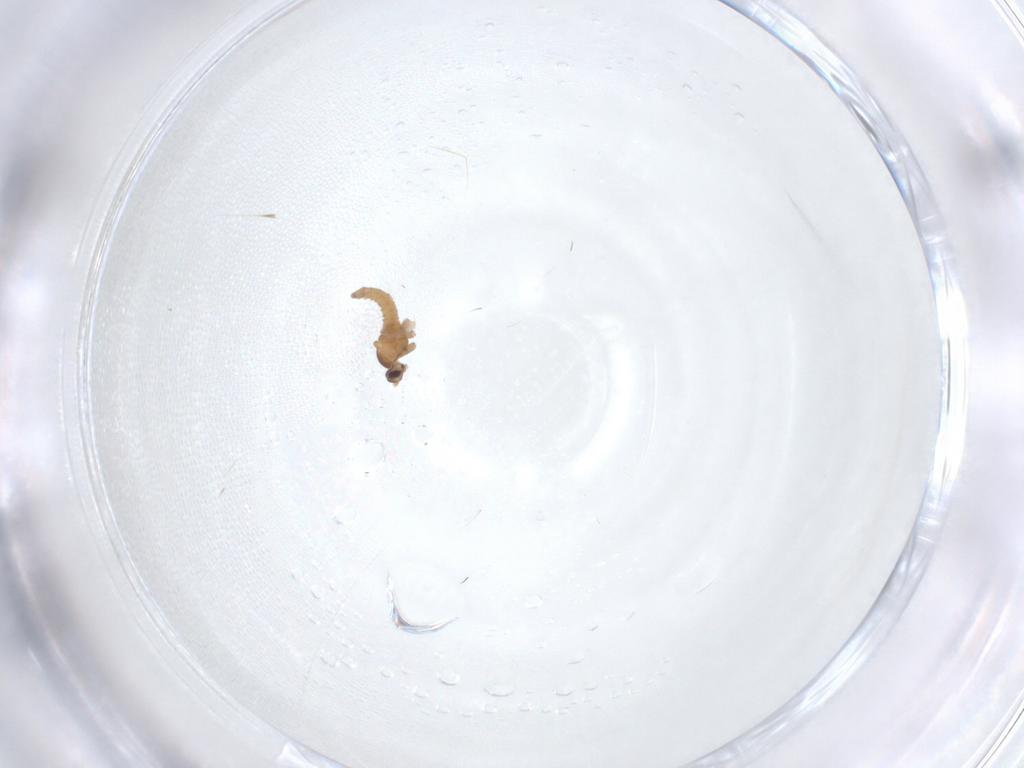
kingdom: Animalia
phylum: Arthropoda
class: Insecta
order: Diptera
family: Cecidomyiidae
